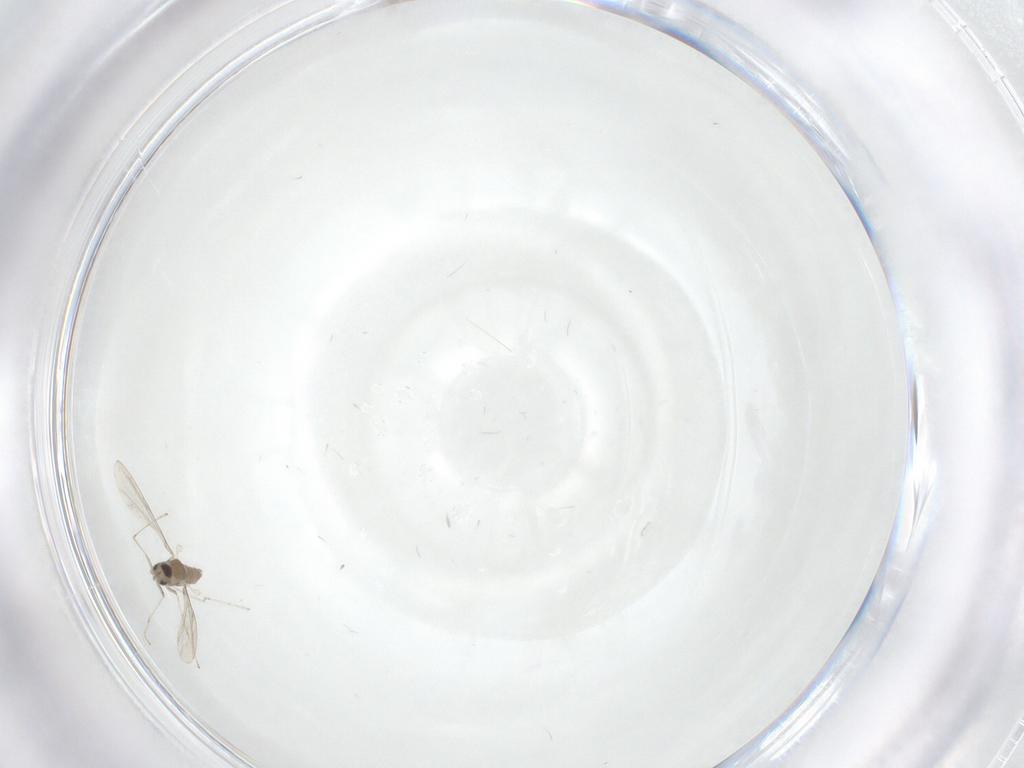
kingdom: Animalia
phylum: Arthropoda
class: Insecta
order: Diptera
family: Cecidomyiidae
